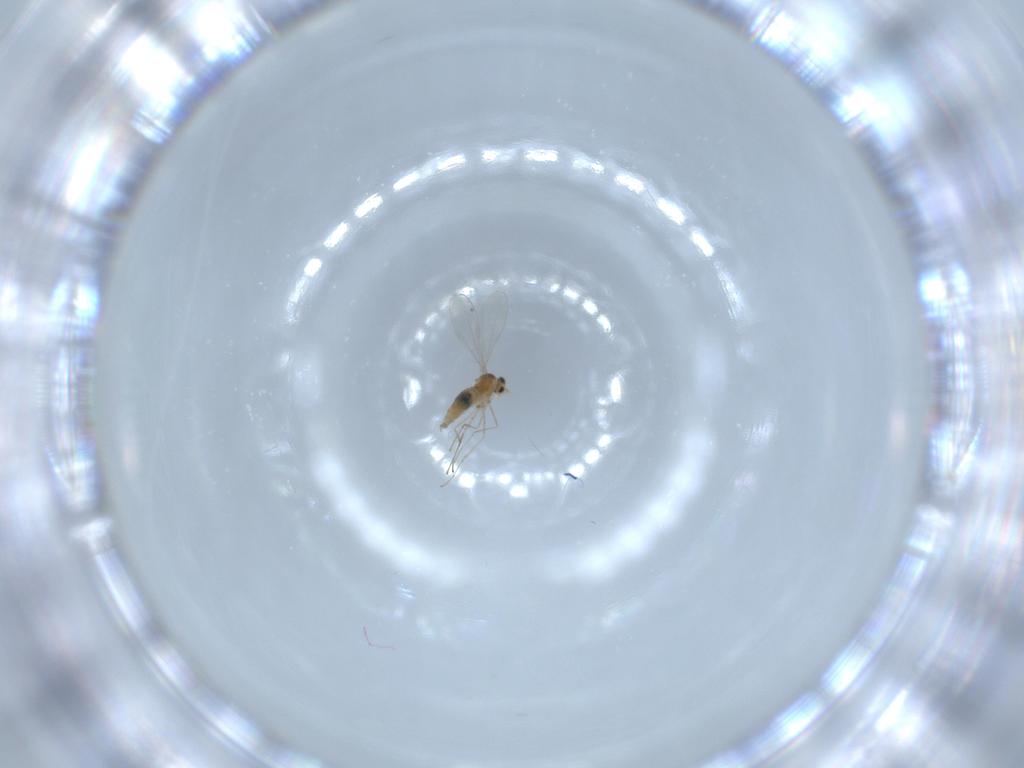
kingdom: Animalia
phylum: Arthropoda
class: Insecta
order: Diptera
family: Cecidomyiidae
